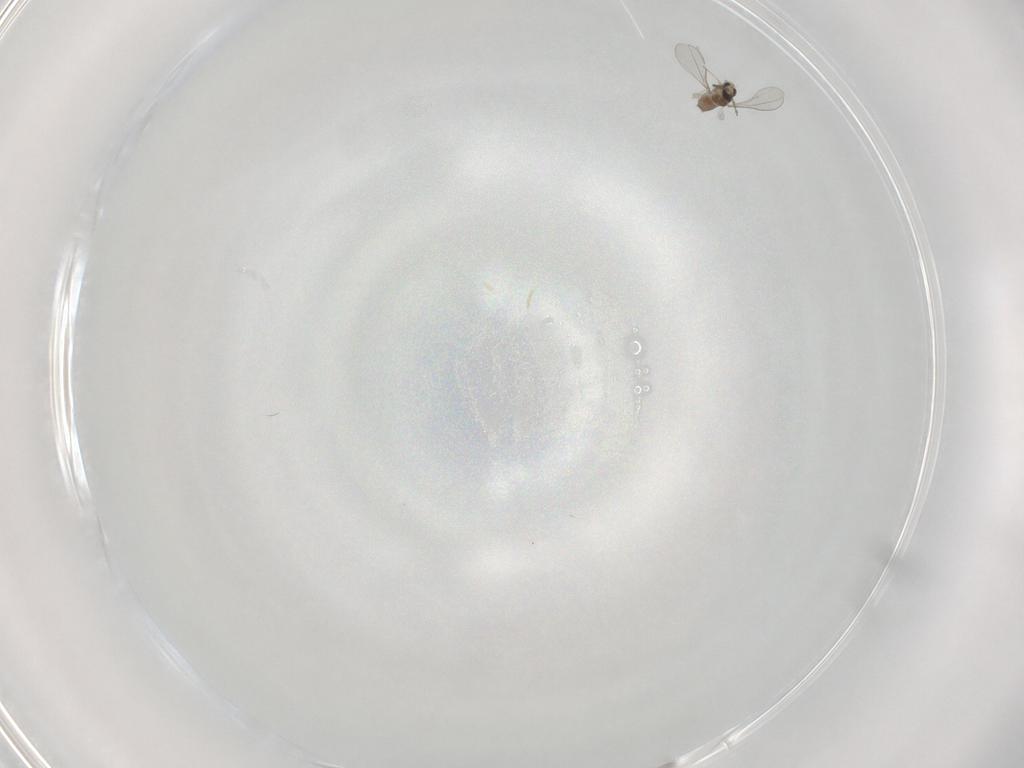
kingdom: Animalia
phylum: Arthropoda
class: Insecta
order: Diptera
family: Cecidomyiidae
